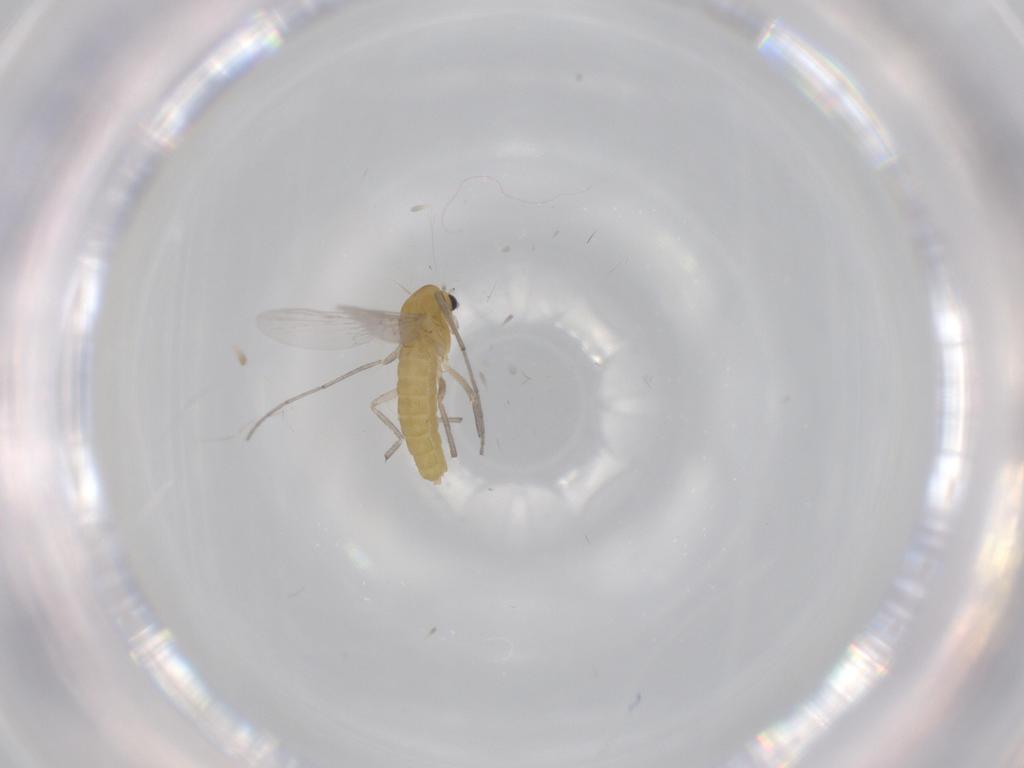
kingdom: Animalia
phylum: Arthropoda
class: Insecta
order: Diptera
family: Chironomidae
